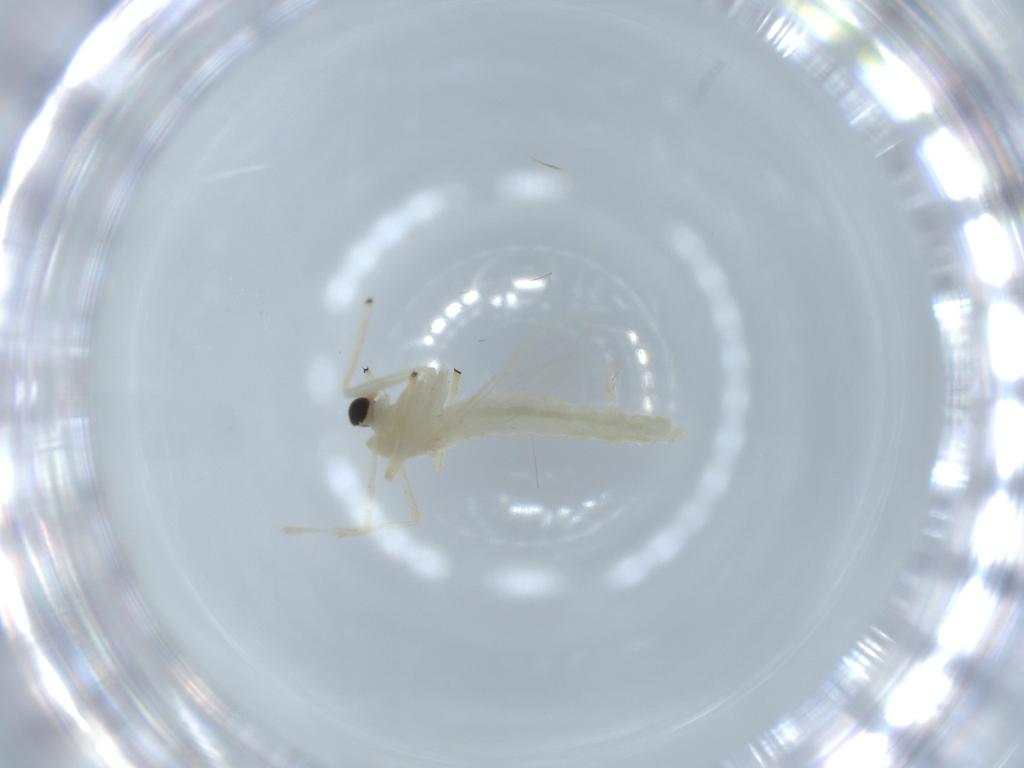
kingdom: Animalia
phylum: Arthropoda
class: Insecta
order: Diptera
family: Chironomidae
